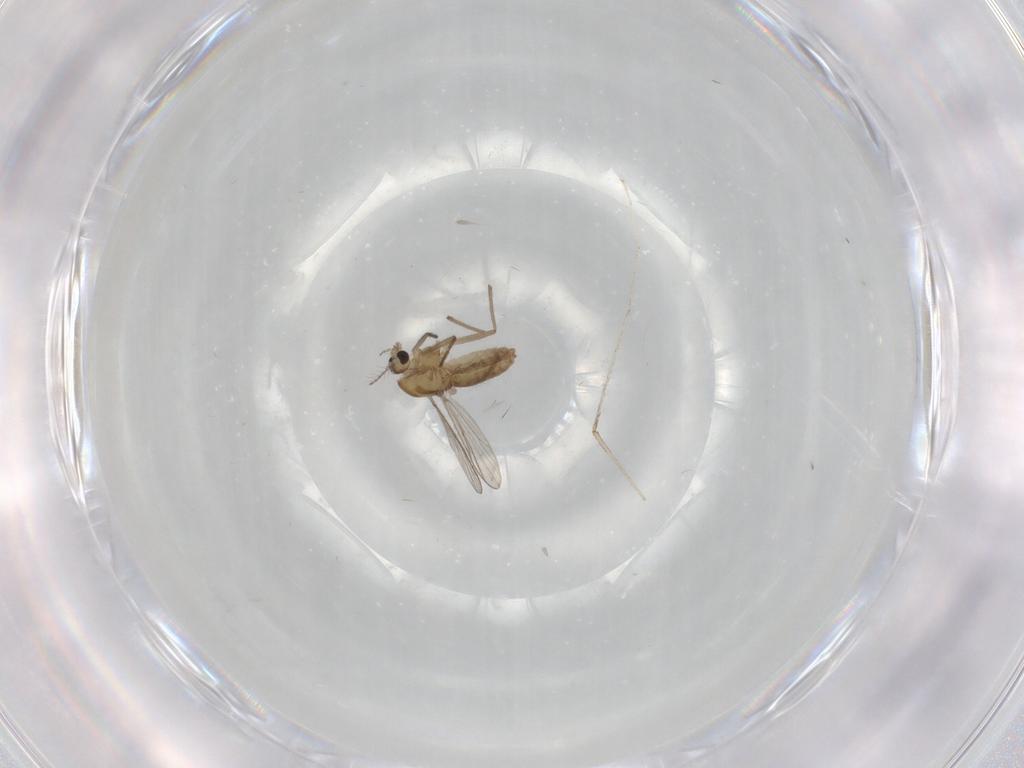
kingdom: Animalia
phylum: Arthropoda
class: Insecta
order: Diptera
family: Chironomidae
